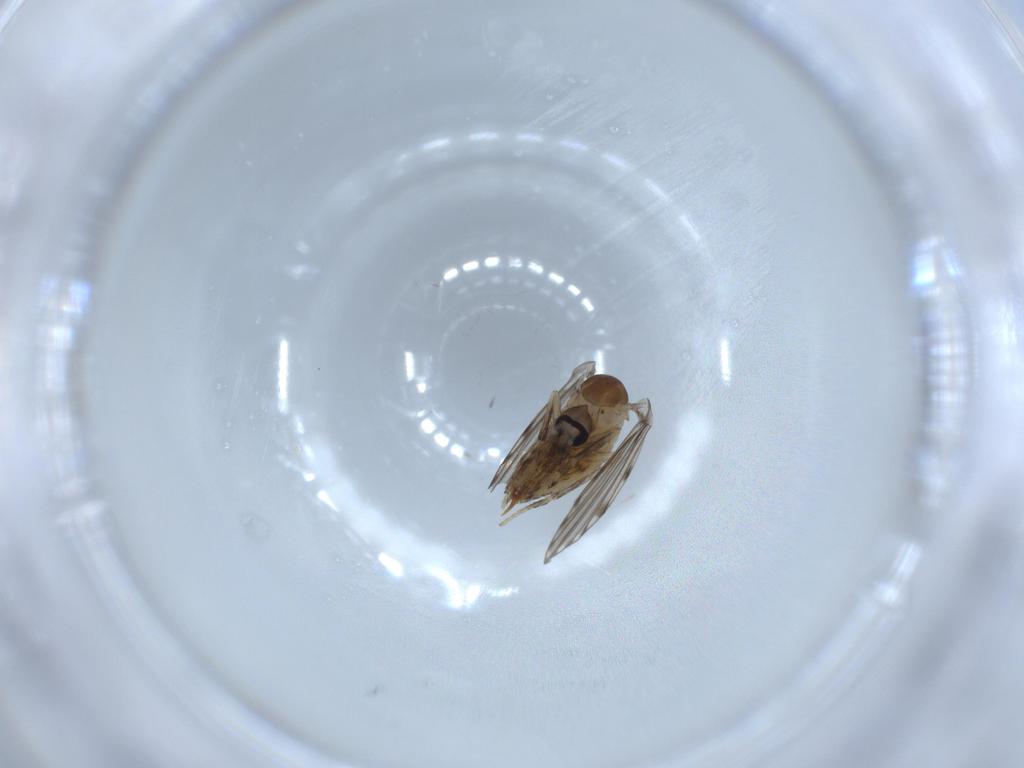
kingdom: Animalia
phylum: Arthropoda
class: Insecta
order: Diptera
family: Psychodidae
